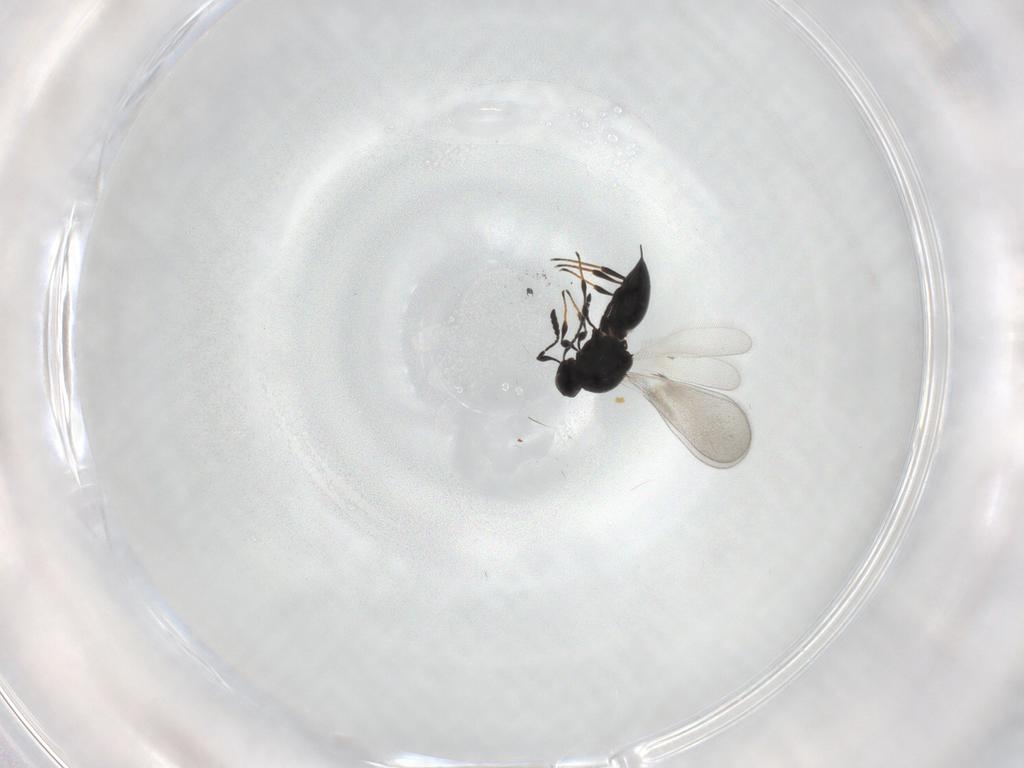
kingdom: Animalia
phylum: Arthropoda
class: Insecta
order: Hymenoptera
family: Platygastridae
